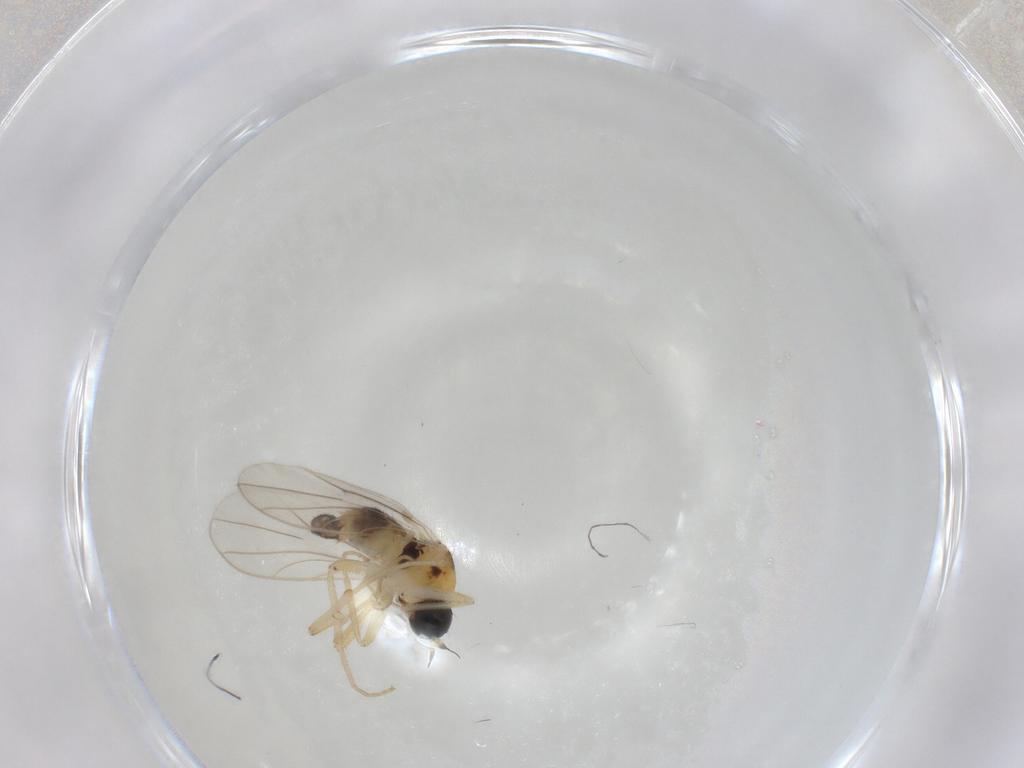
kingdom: Animalia
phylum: Arthropoda
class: Insecta
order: Diptera
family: Hybotidae
